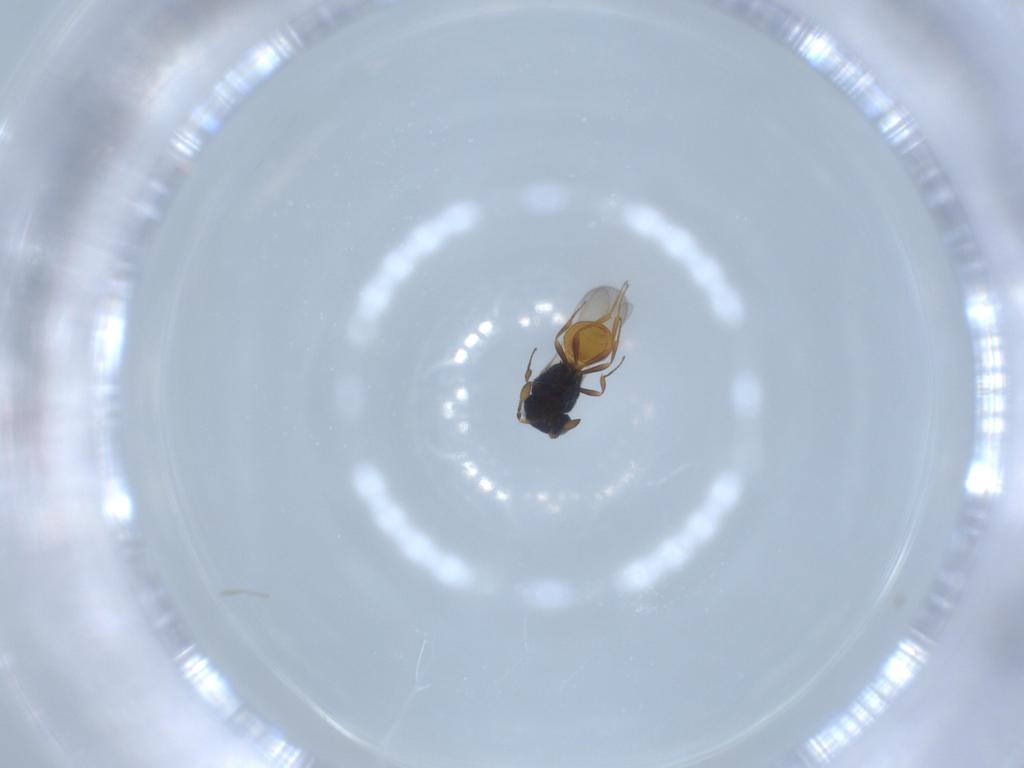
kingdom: Animalia
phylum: Arthropoda
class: Insecta
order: Hymenoptera
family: Scelionidae
